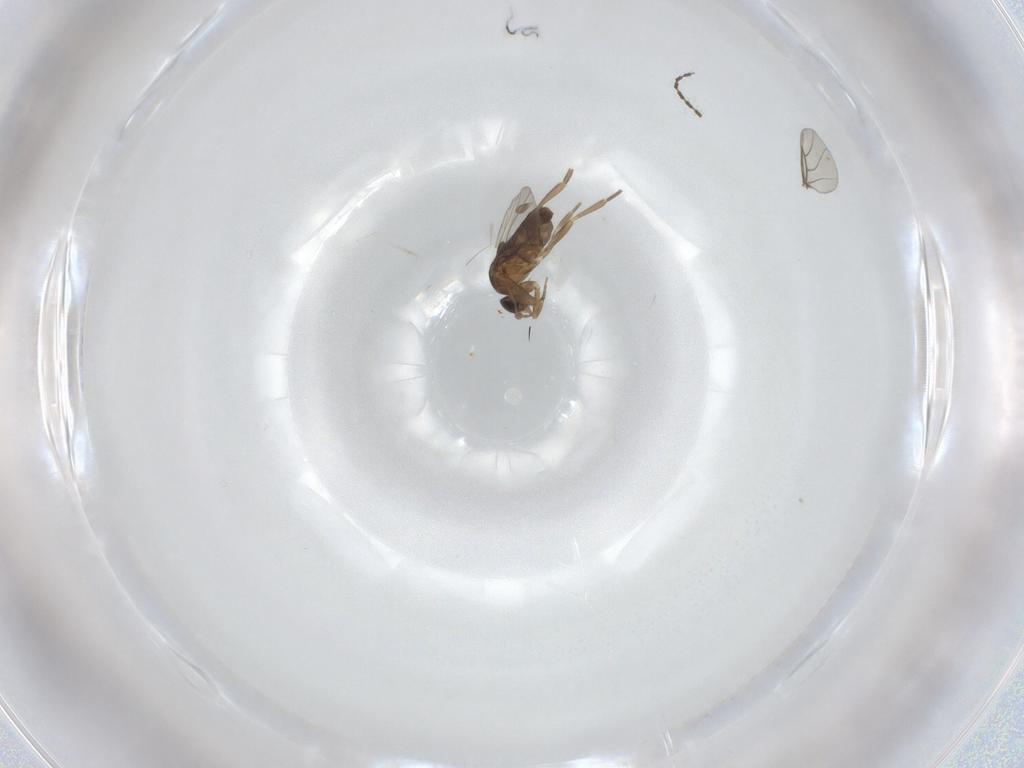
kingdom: Animalia
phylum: Arthropoda
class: Insecta
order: Diptera
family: Phoridae
